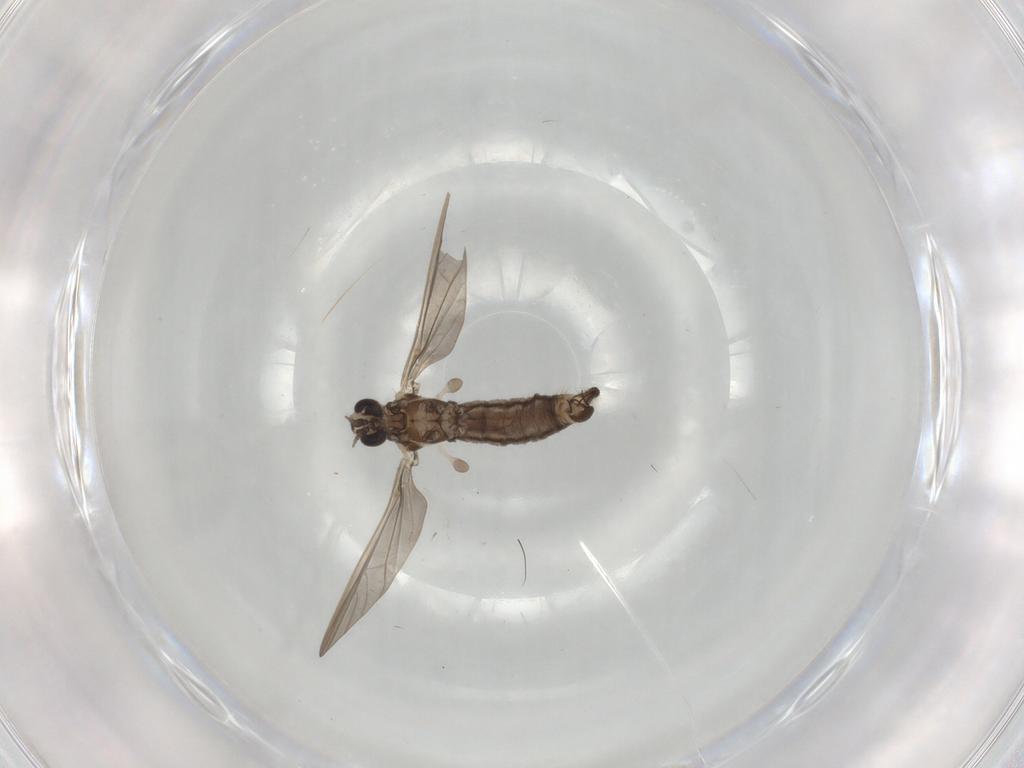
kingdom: Animalia
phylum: Arthropoda
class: Insecta
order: Diptera
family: Sciaridae
